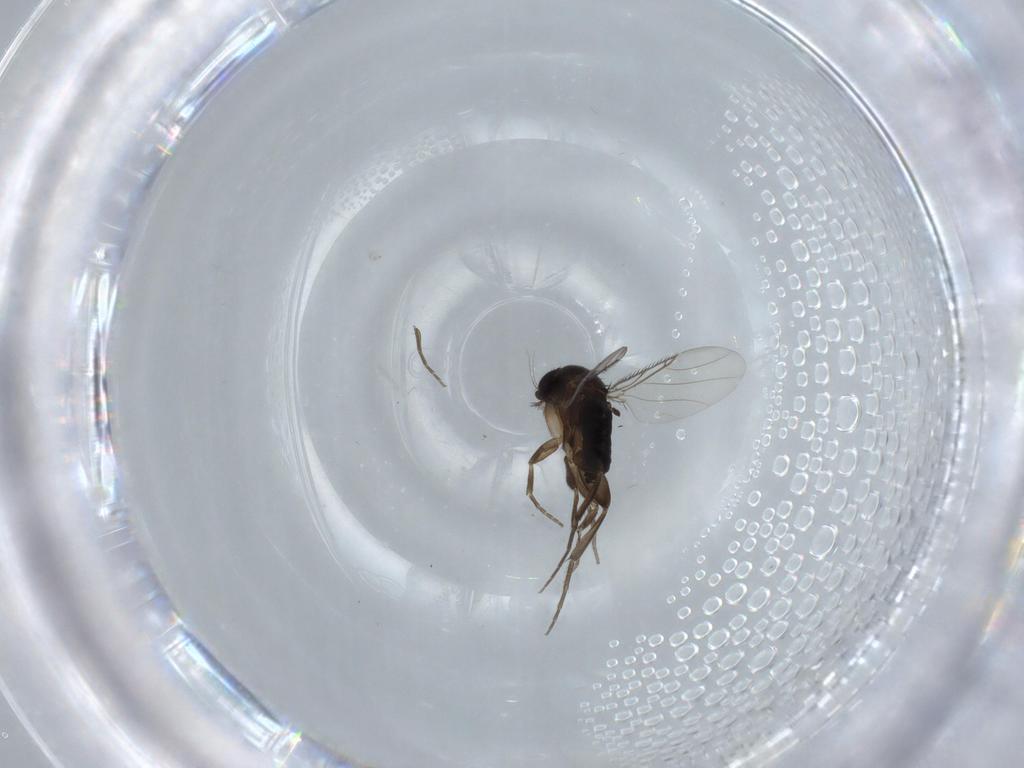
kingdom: Animalia
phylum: Arthropoda
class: Insecta
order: Diptera
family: Phoridae
